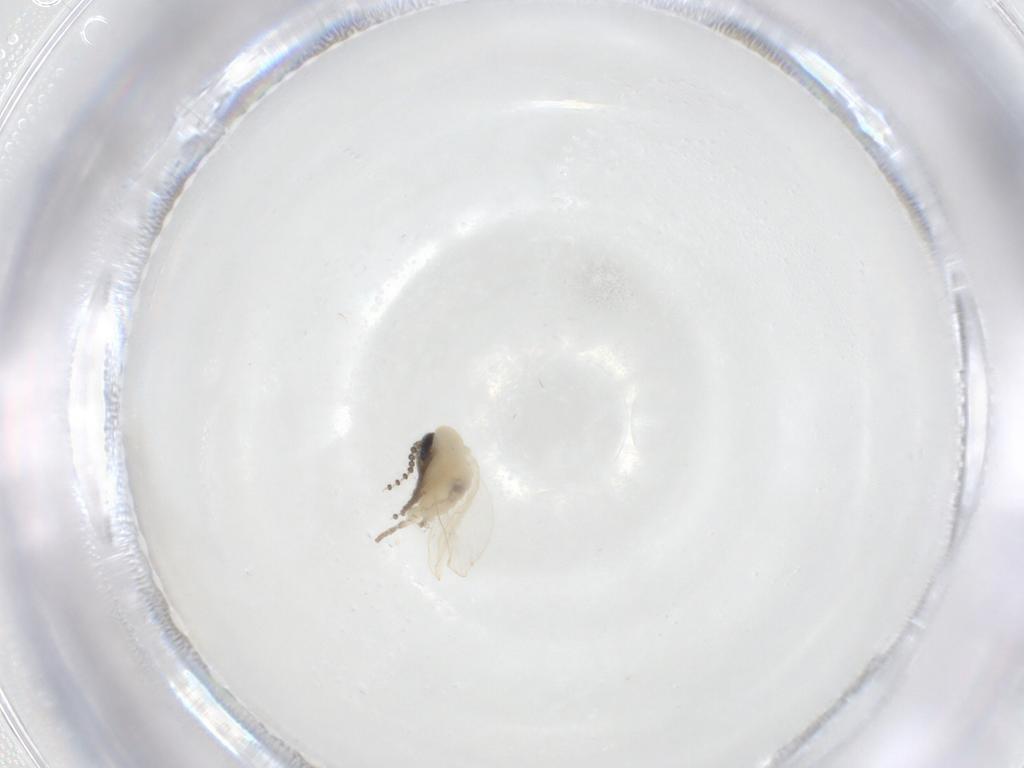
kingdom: Animalia
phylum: Arthropoda
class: Insecta
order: Diptera
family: Psychodidae
